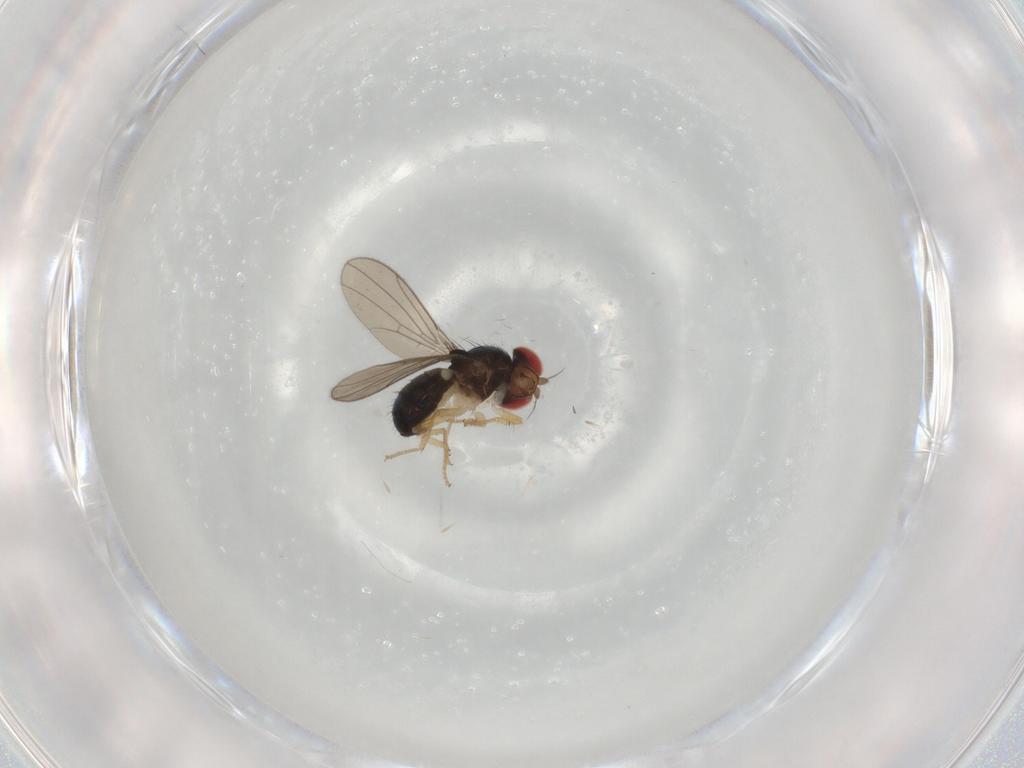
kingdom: Animalia
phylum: Arthropoda
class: Insecta
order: Diptera
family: Drosophilidae
